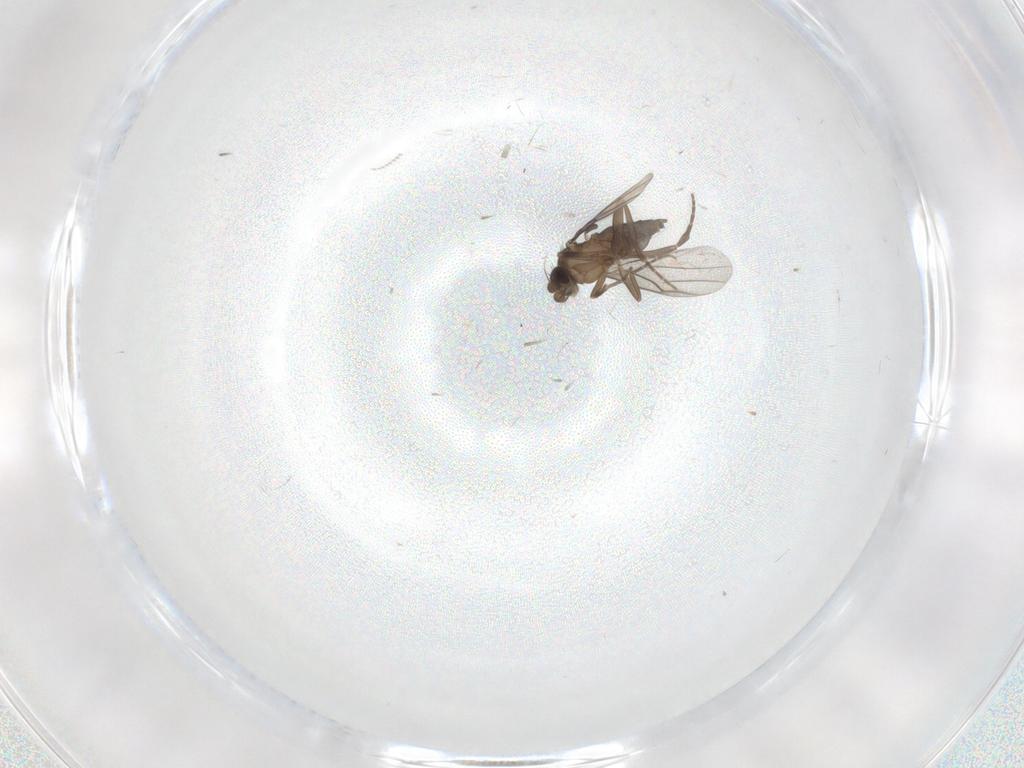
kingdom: Animalia
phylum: Arthropoda
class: Insecta
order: Diptera
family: Cecidomyiidae
